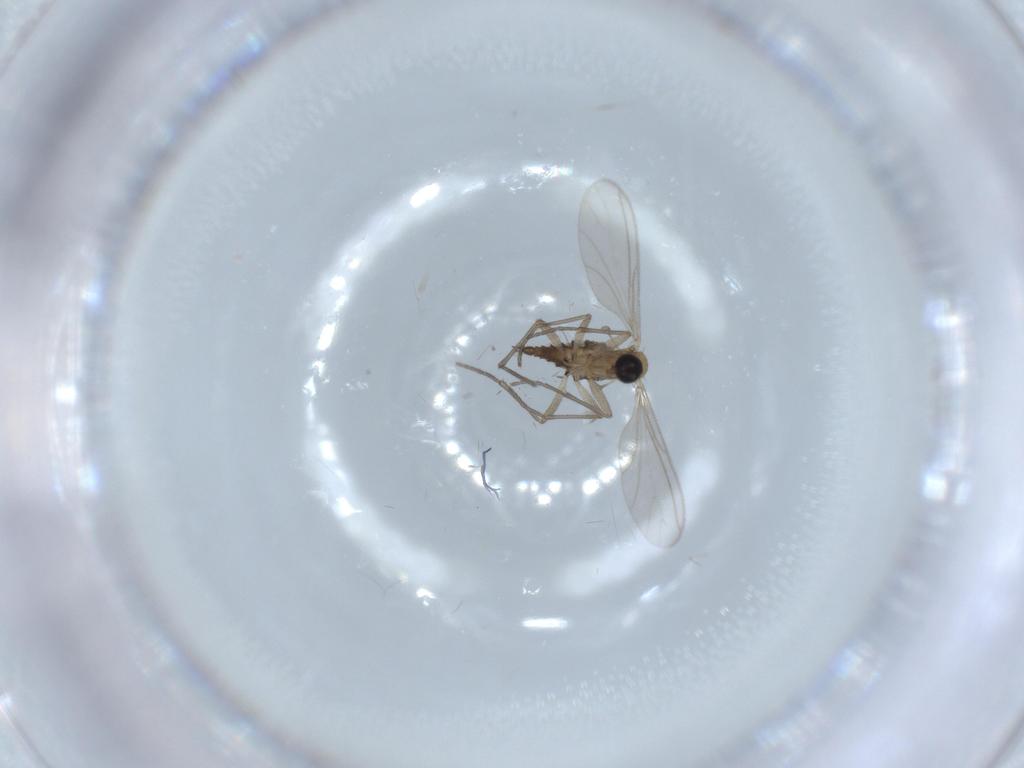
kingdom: Animalia
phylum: Arthropoda
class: Insecta
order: Diptera
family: Sciaridae
